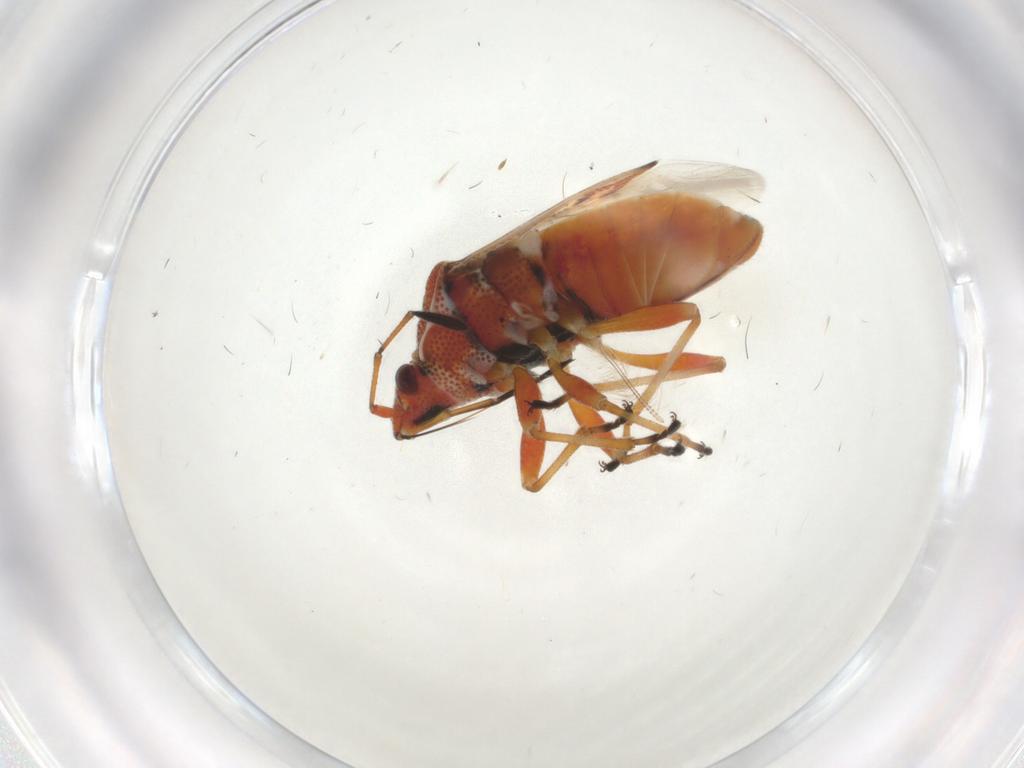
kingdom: Animalia
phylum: Arthropoda
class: Insecta
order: Hemiptera
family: Lygaeidae
